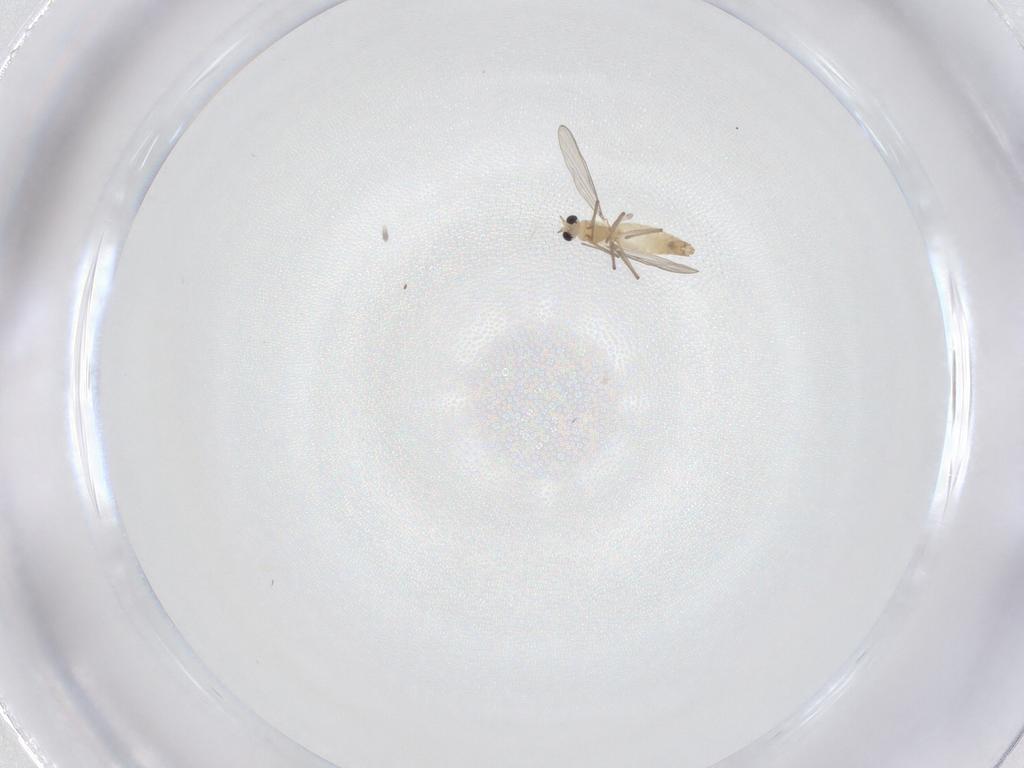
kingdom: Animalia
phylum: Arthropoda
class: Insecta
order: Diptera
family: Chironomidae
